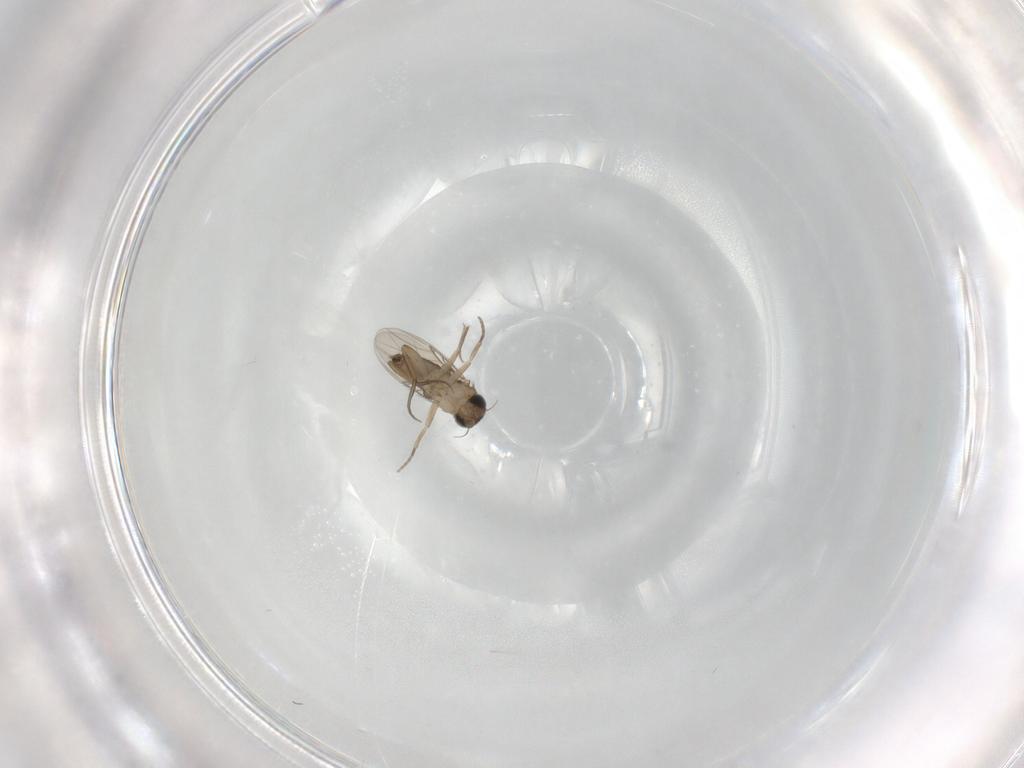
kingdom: Animalia
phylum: Arthropoda
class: Insecta
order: Diptera
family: Phoridae
